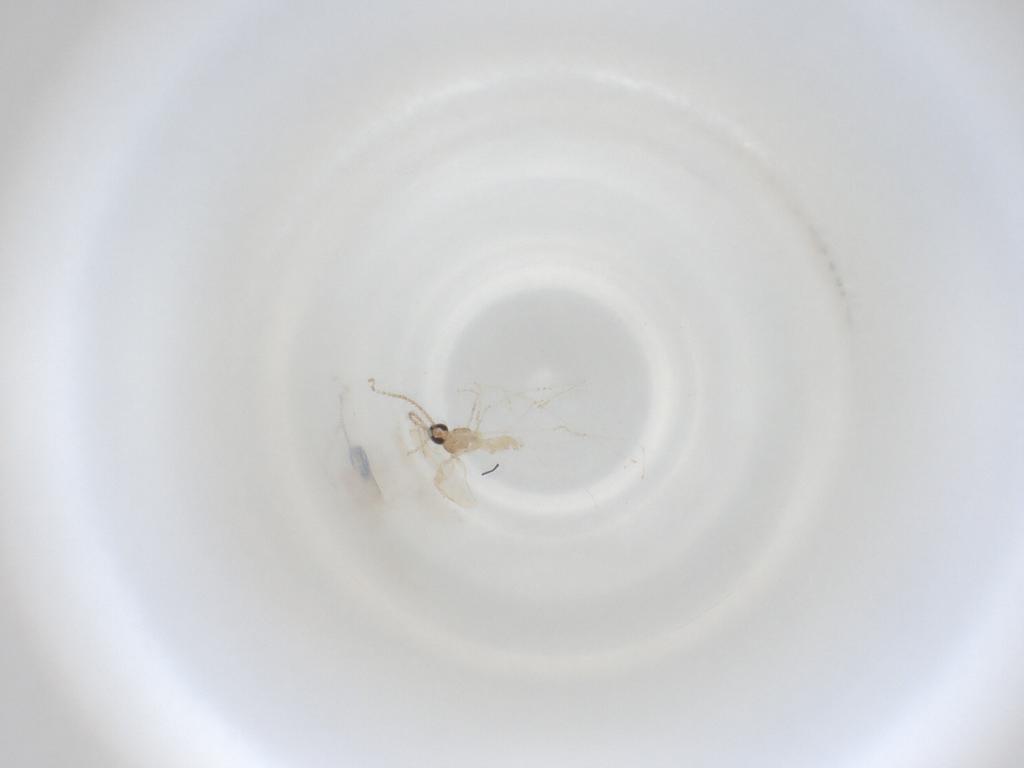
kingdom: Animalia
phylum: Arthropoda
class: Insecta
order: Diptera
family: Cecidomyiidae
